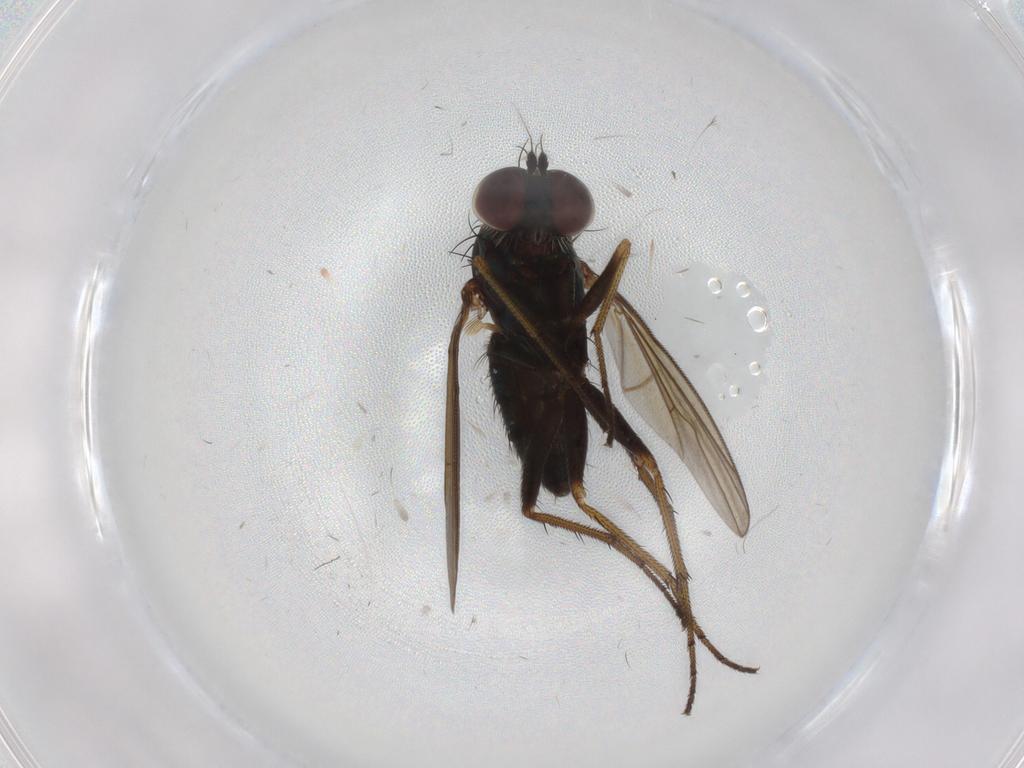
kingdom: Animalia
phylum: Arthropoda
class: Insecta
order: Diptera
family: Dolichopodidae
